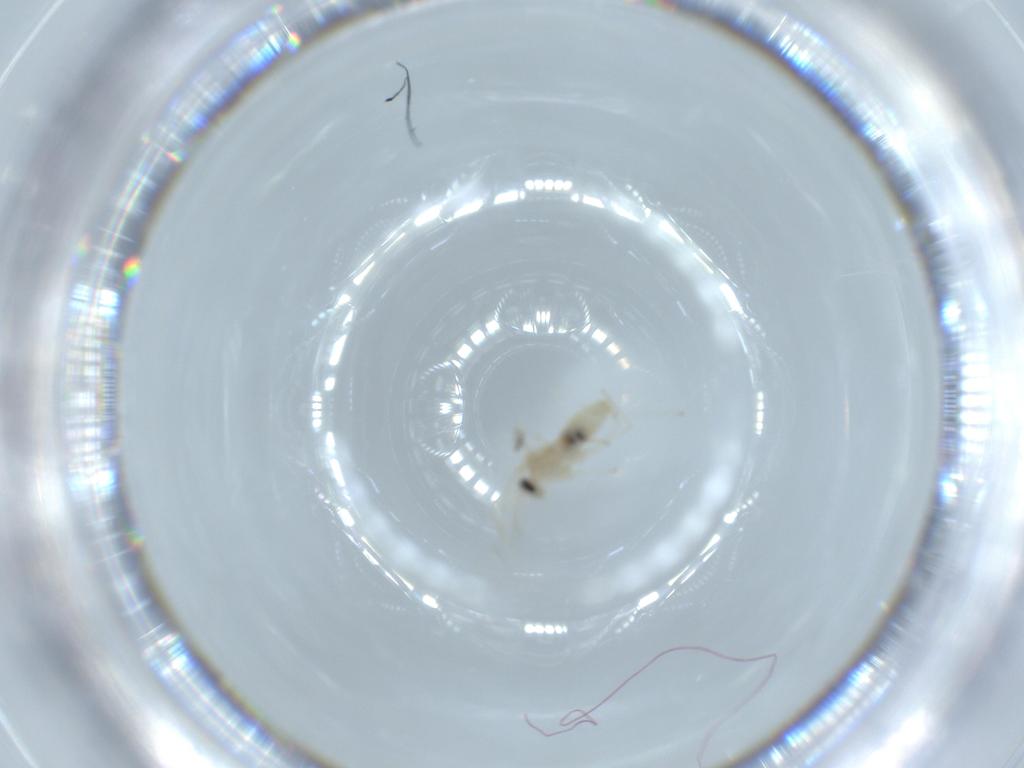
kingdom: Animalia
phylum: Arthropoda
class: Insecta
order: Diptera
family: Cecidomyiidae
